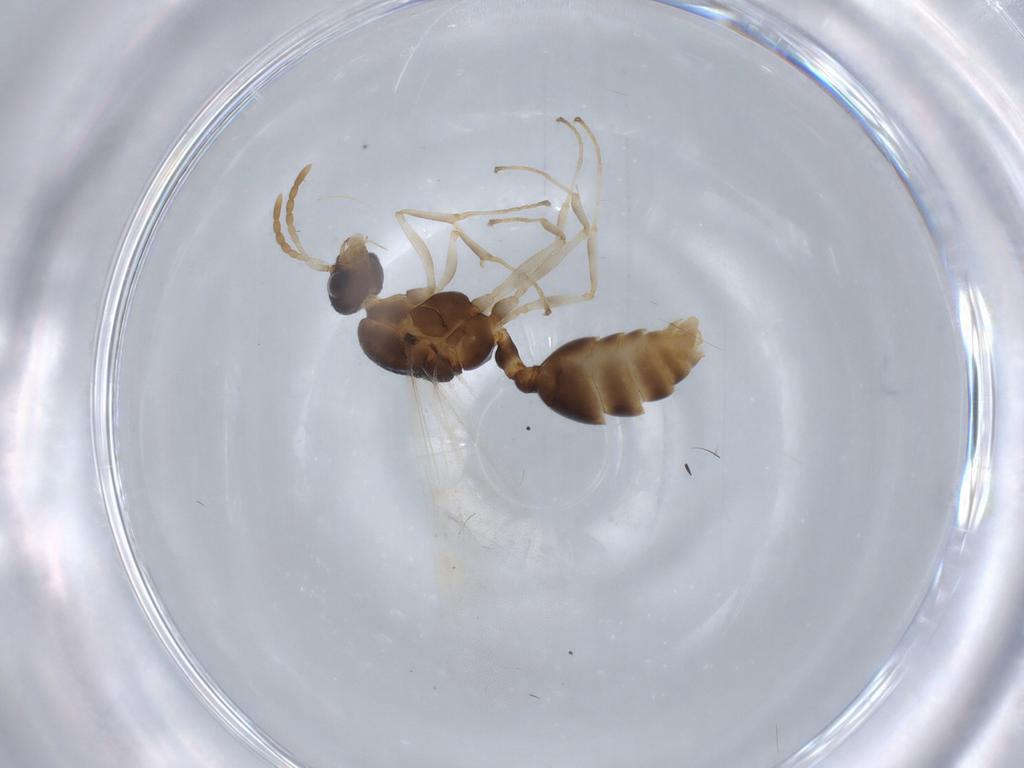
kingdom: Animalia
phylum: Arthropoda
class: Insecta
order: Hymenoptera
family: Formicidae
